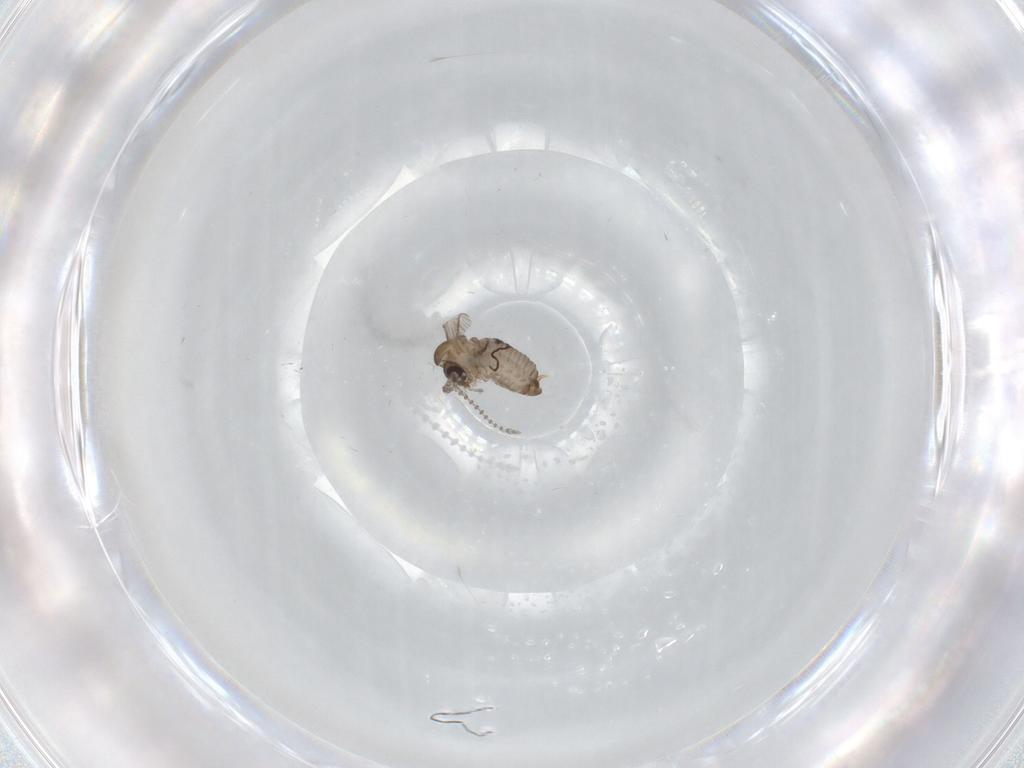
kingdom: Animalia
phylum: Arthropoda
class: Insecta
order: Diptera
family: Psychodidae
